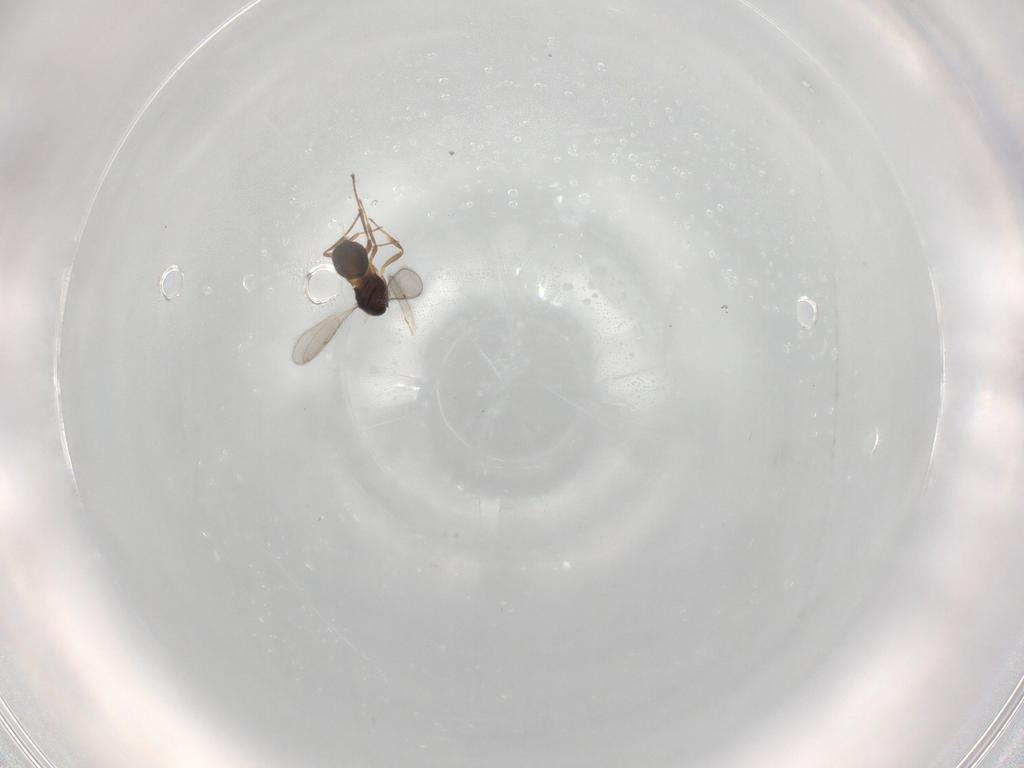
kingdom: Animalia
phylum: Arthropoda
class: Insecta
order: Hymenoptera
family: Scelionidae
